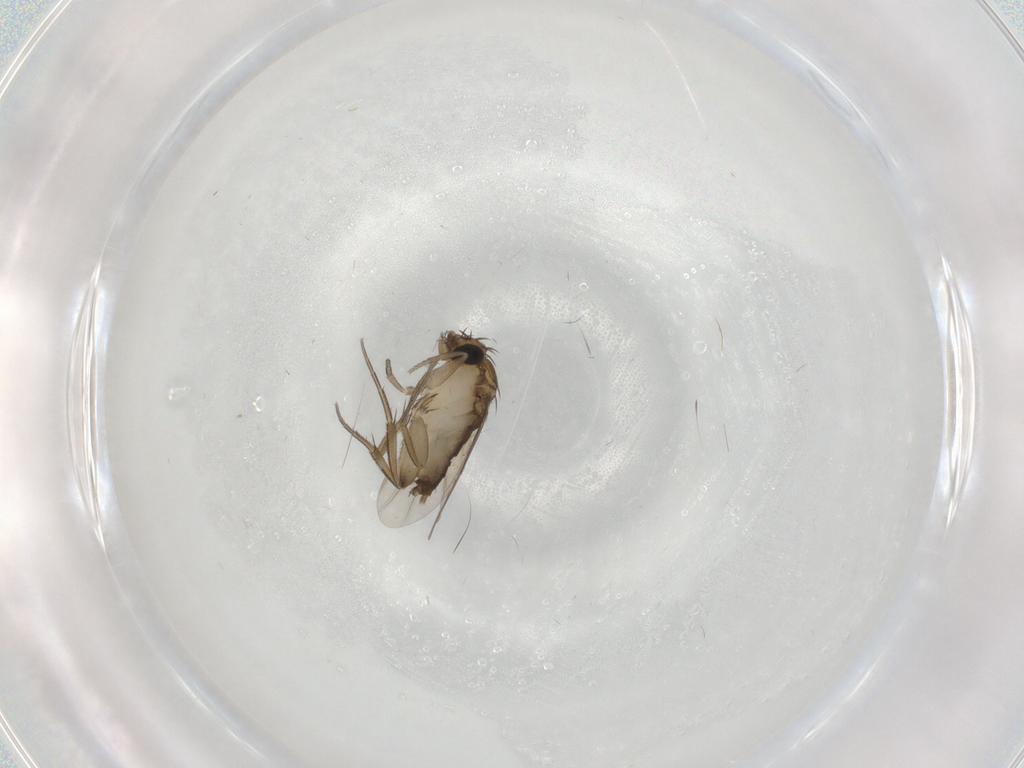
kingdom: Animalia
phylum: Arthropoda
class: Insecta
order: Diptera
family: Phoridae
